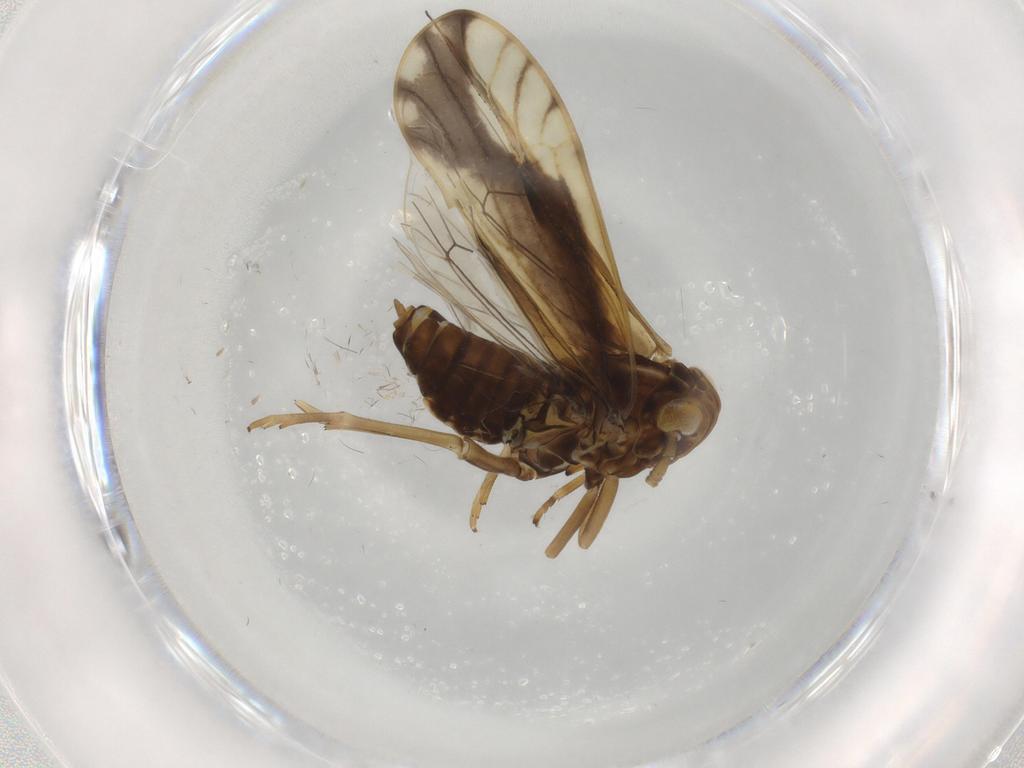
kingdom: Animalia
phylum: Arthropoda
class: Insecta
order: Hemiptera
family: Delphacidae
